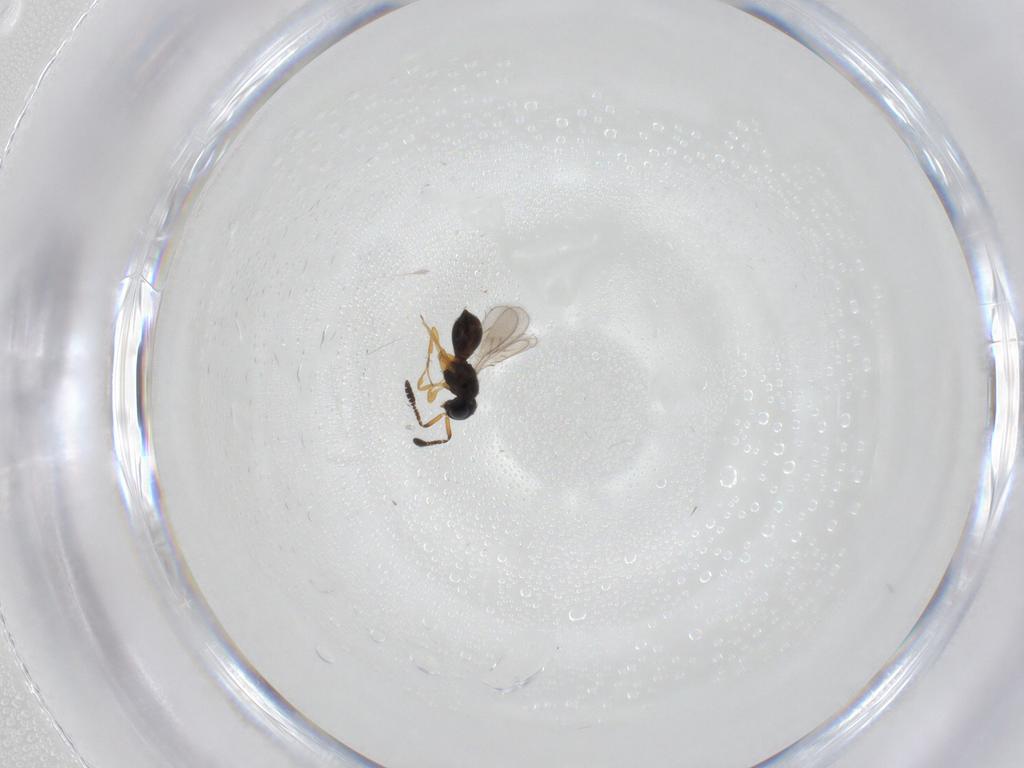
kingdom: Animalia
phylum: Arthropoda
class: Insecta
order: Hymenoptera
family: Scelionidae
